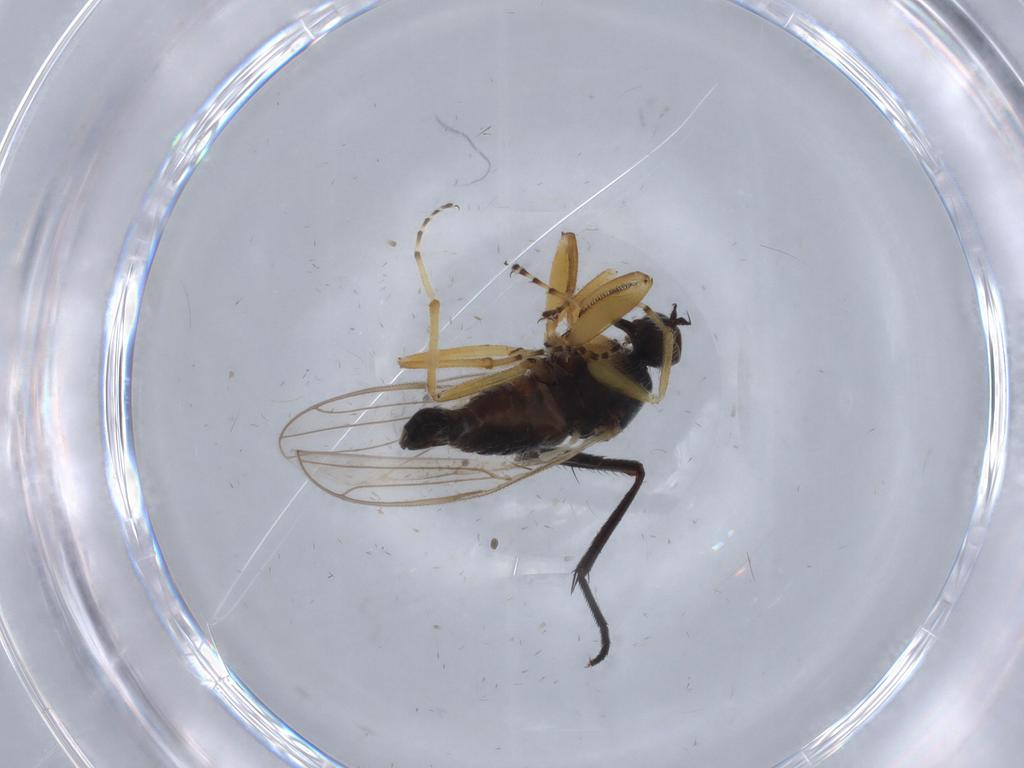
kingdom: Animalia
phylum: Arthropoda
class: Insecta
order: Diptera
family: Hybotidae
